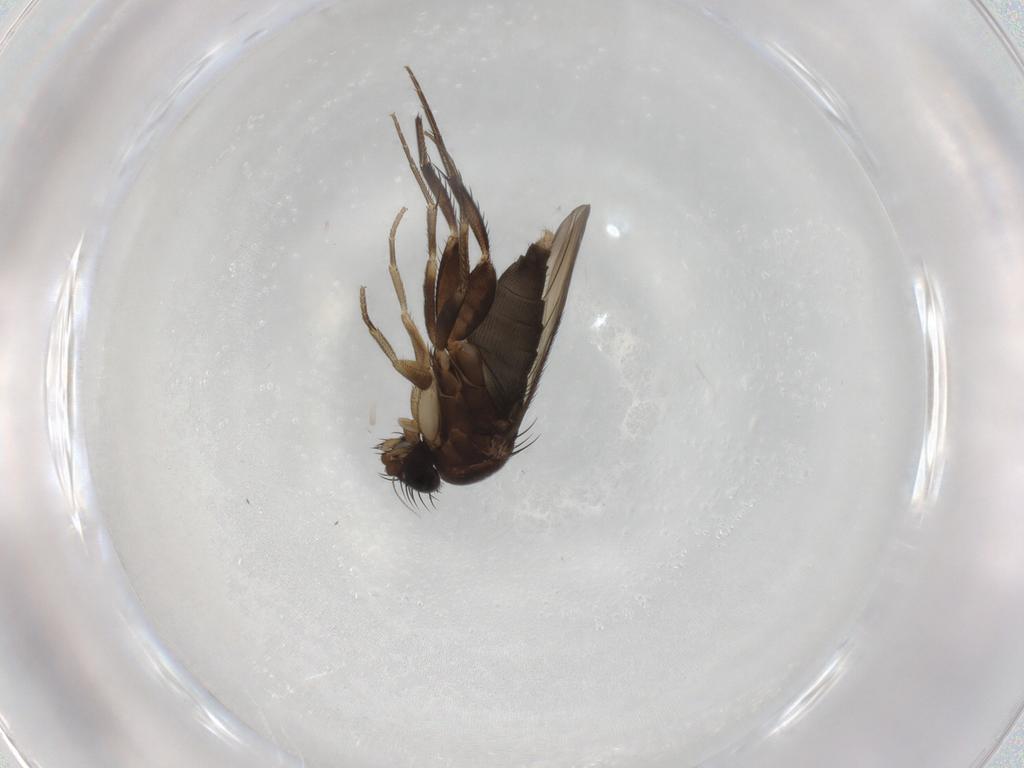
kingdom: Animalia
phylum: Arthropoda
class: Insecta
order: Diptera
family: Phoridae
